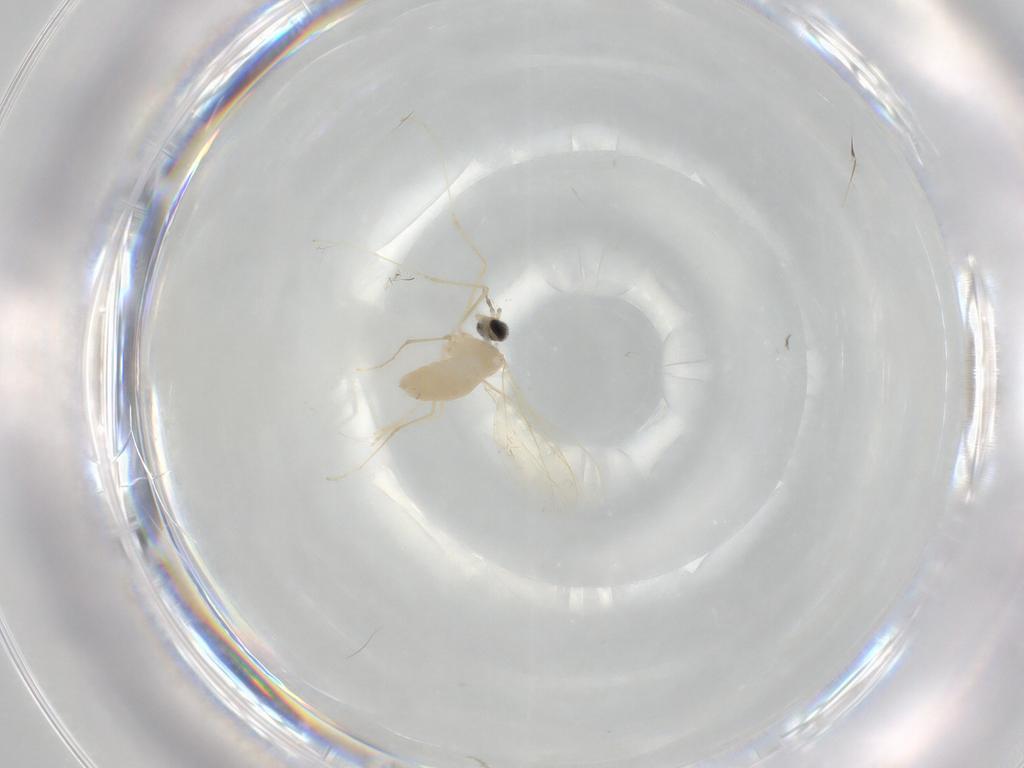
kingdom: Animalia
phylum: Arthropoda
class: Insecta
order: Diptera
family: Cecidomyiidae
